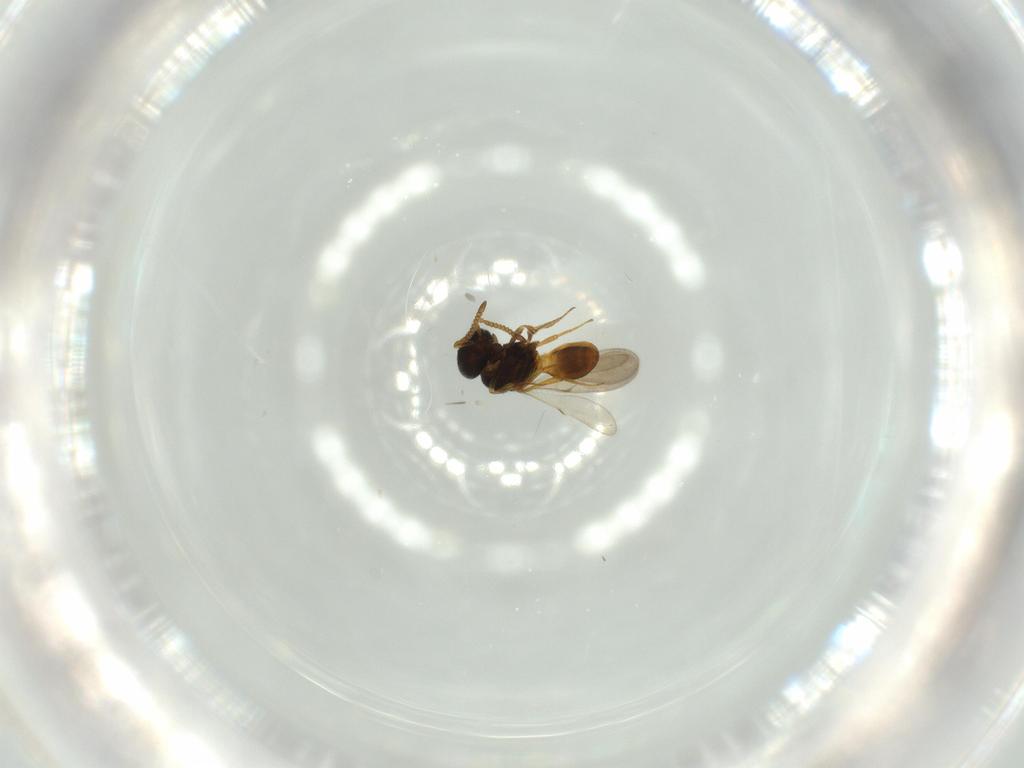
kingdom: Animalia
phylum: Arthropoda
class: Insecta
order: Hymenoptera
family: Scelionidae
